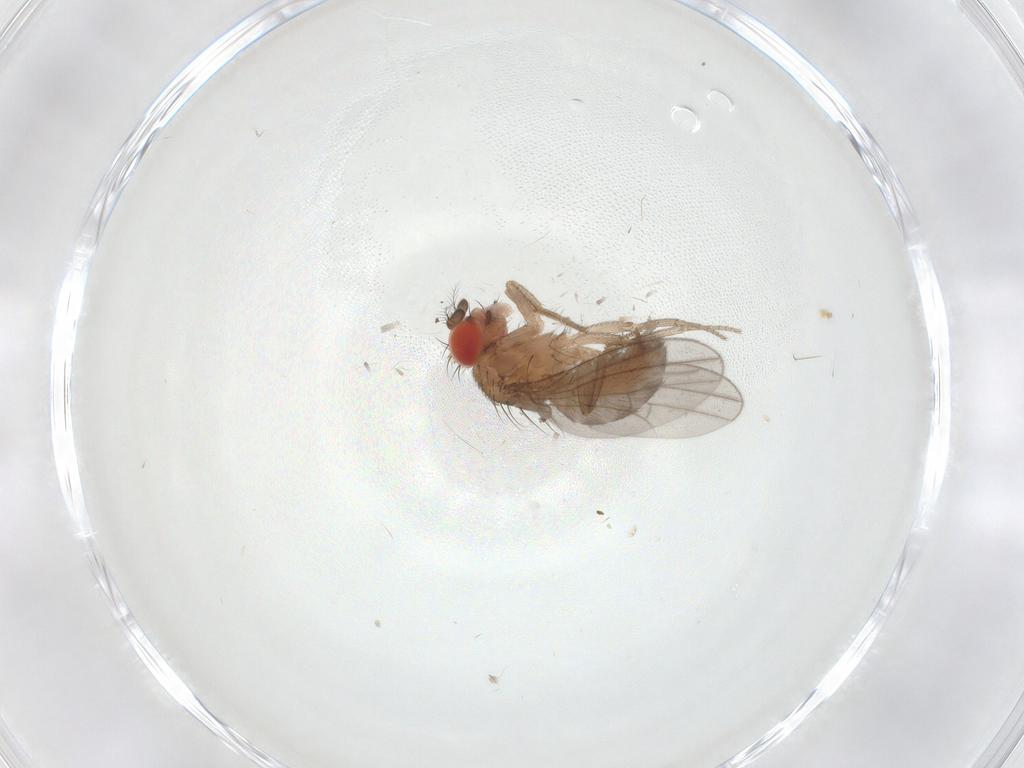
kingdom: Animalia
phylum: Arthropoda
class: Insecta
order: Diptera
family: Drosophilidae
